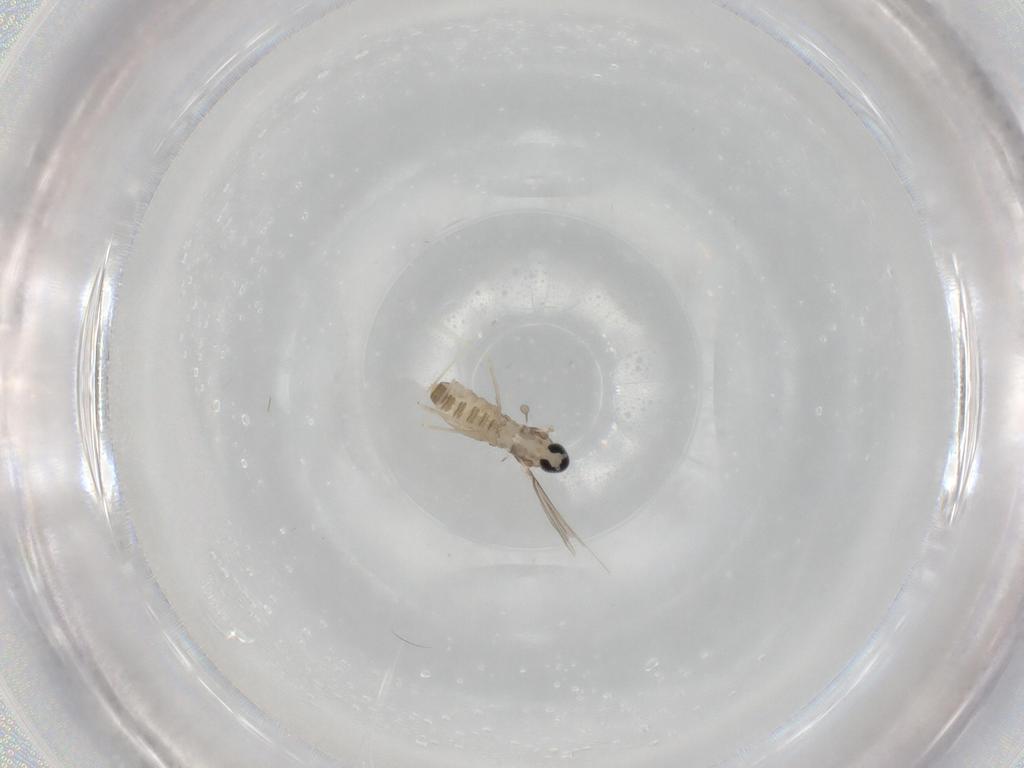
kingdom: Animalia
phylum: Arthropoda
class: Insecta
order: Diptera
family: Cecidomyiidae
